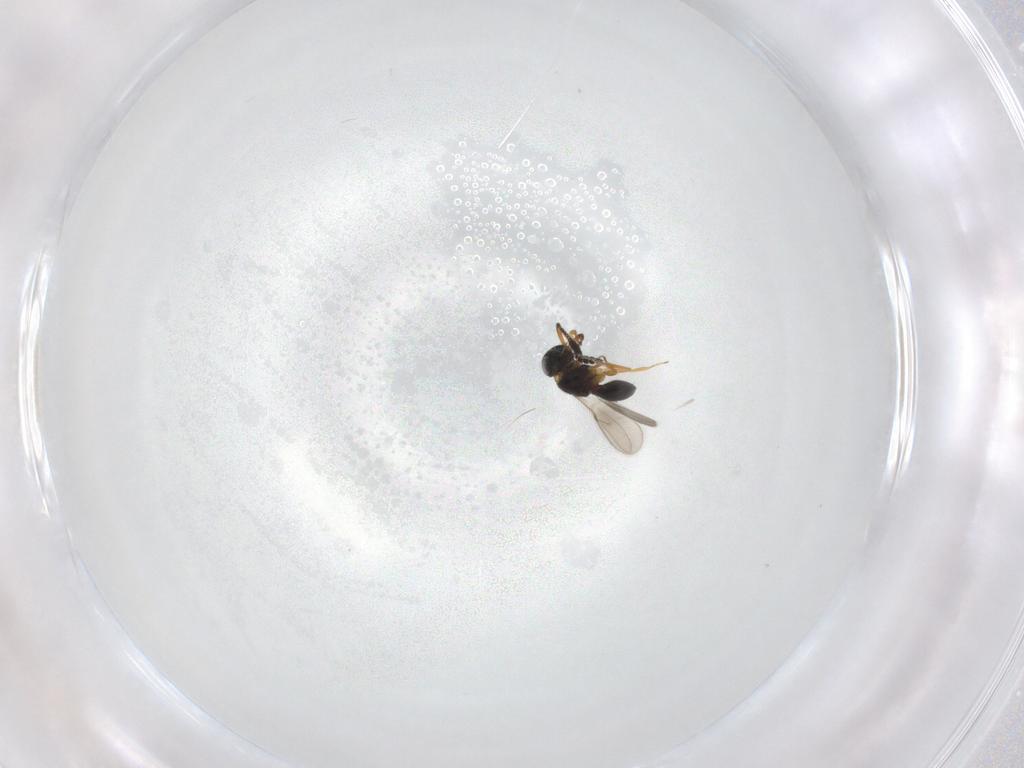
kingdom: Animalia
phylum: Arthropoda
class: Insecta
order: Hymenoptera
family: Scelionidae
